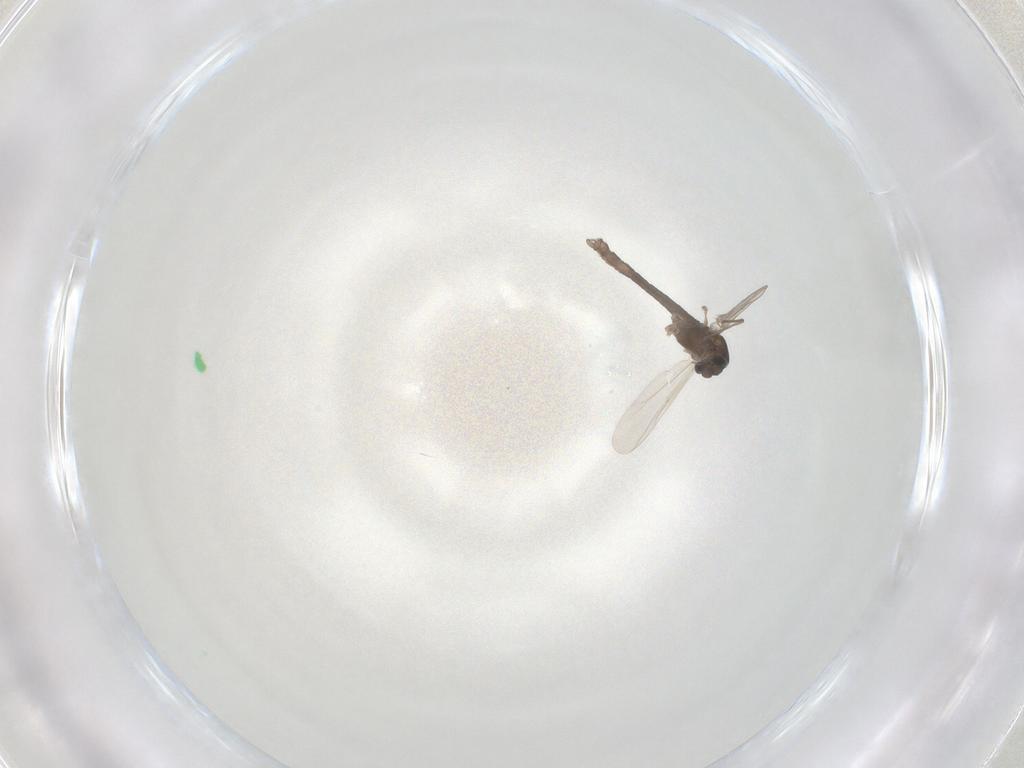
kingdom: Animalia
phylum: Arthropoda
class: Insecta
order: Diptera
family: Chironomidae
